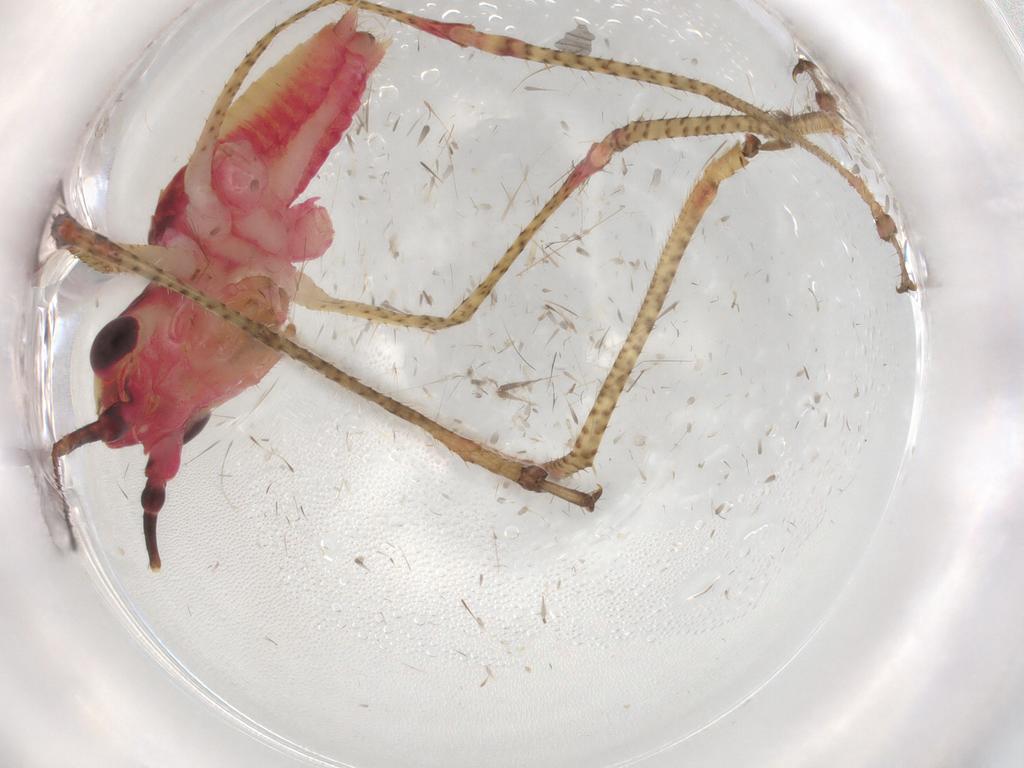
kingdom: Animalia
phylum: Arthropoda
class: Insecta
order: Orthoptera
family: Tettigoniidae
